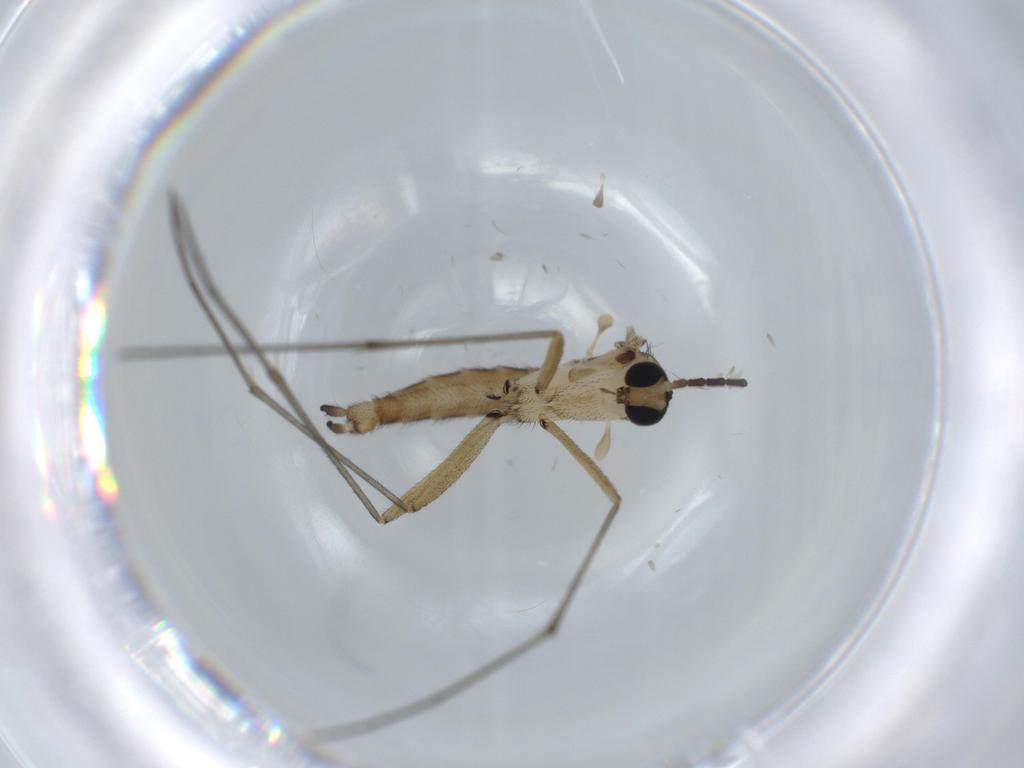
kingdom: Animalia
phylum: Arthropoda
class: Insecta
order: Diptera
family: Sciaridae
